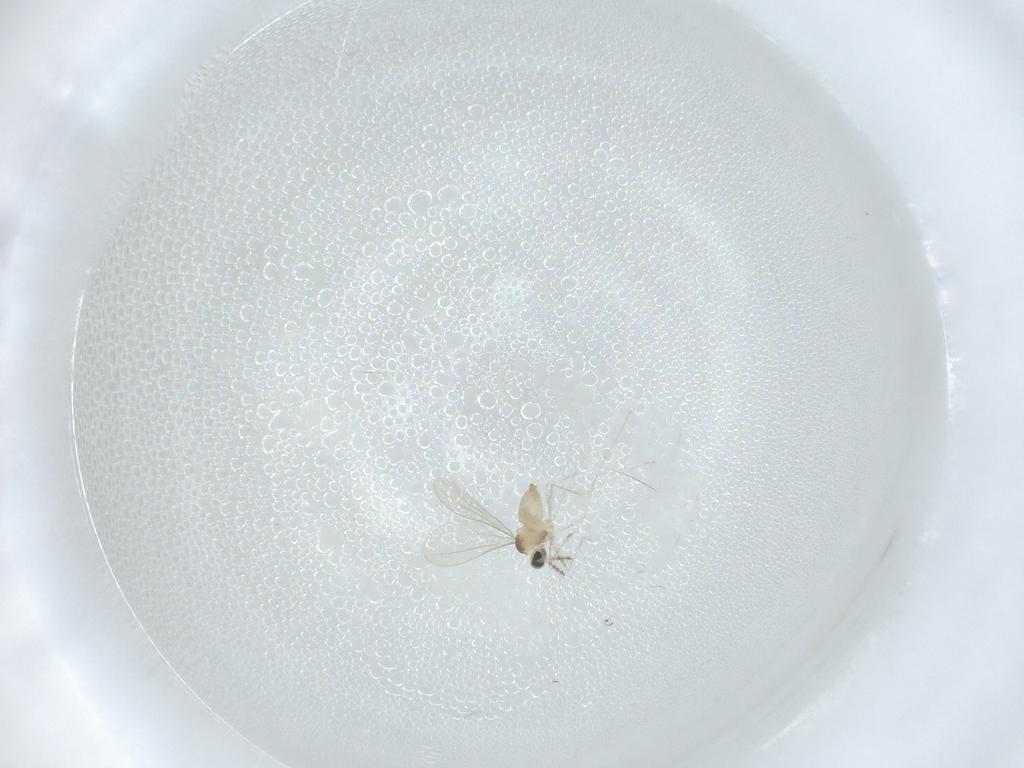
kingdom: Animalia
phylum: Arthropoda
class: Insecta
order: Diptera
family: Cecidomyiidae
